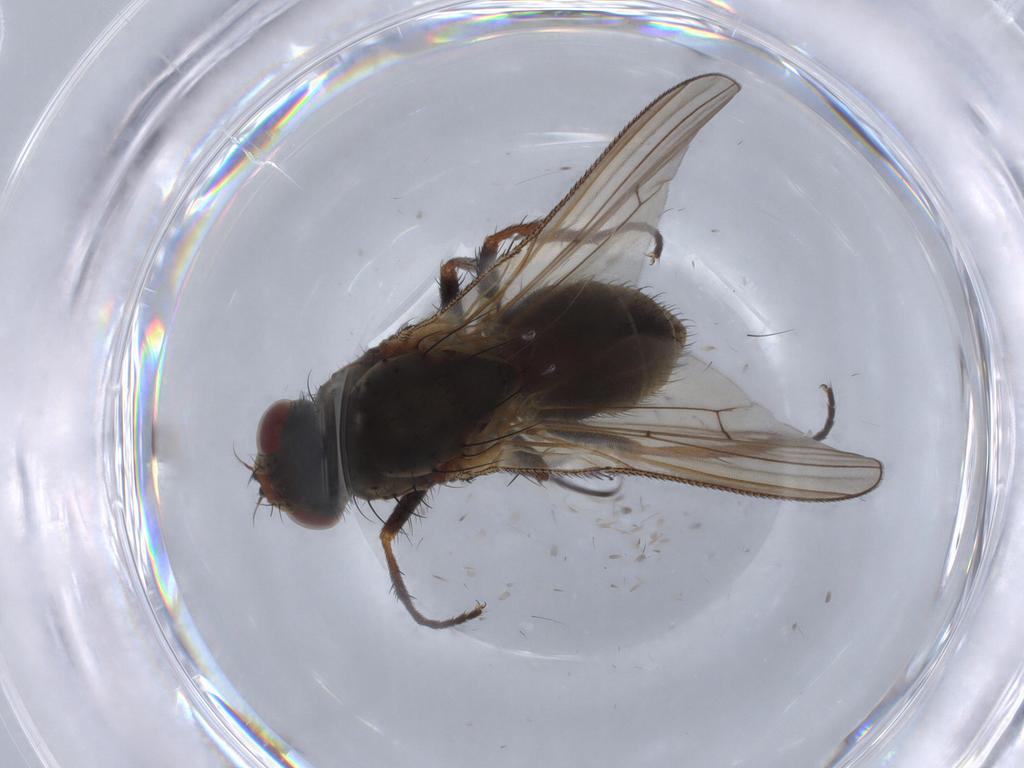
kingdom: Animalia
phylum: Arthropoda
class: Insecta
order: Diptera
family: Anthomyiidae
